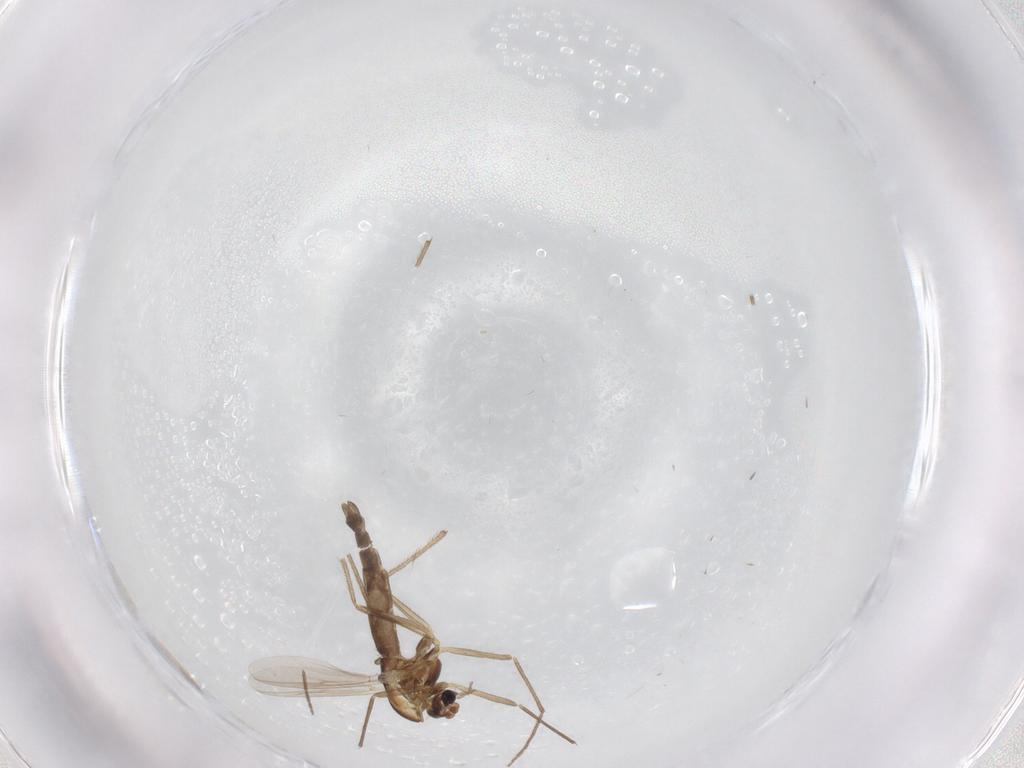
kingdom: Animalia
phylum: Arthropoda
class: Insecta
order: Diptera
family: Chironomidae
